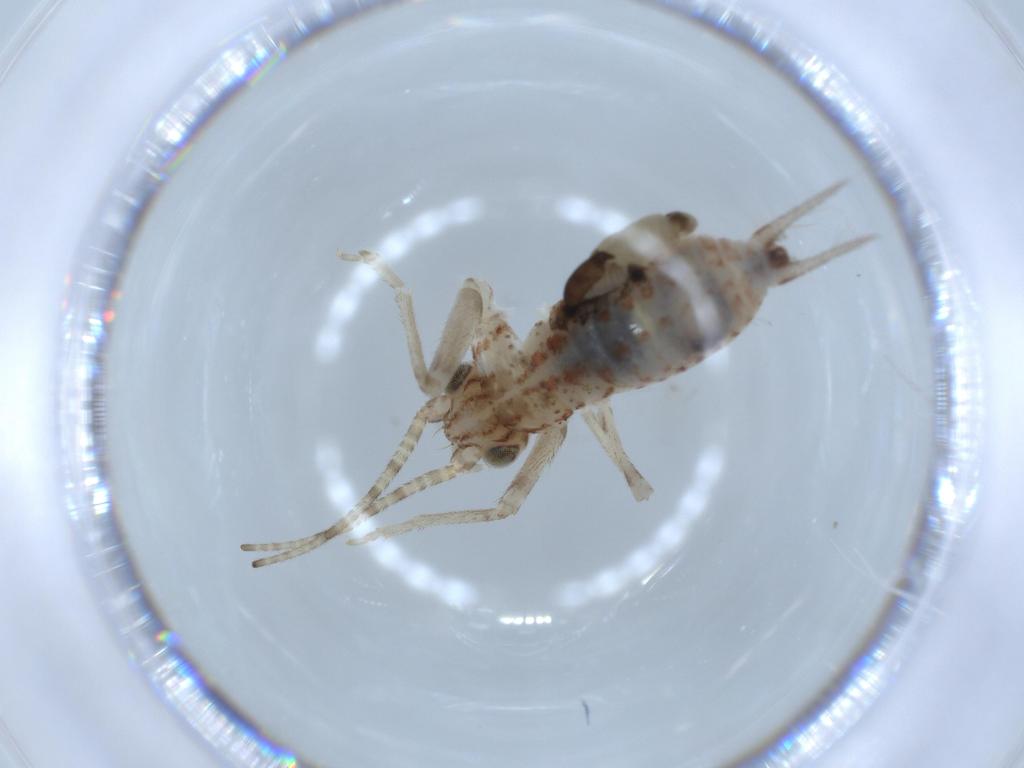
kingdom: Animalia
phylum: Arthropoda
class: Insecta
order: Orthoptera
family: Trigonidiidae
